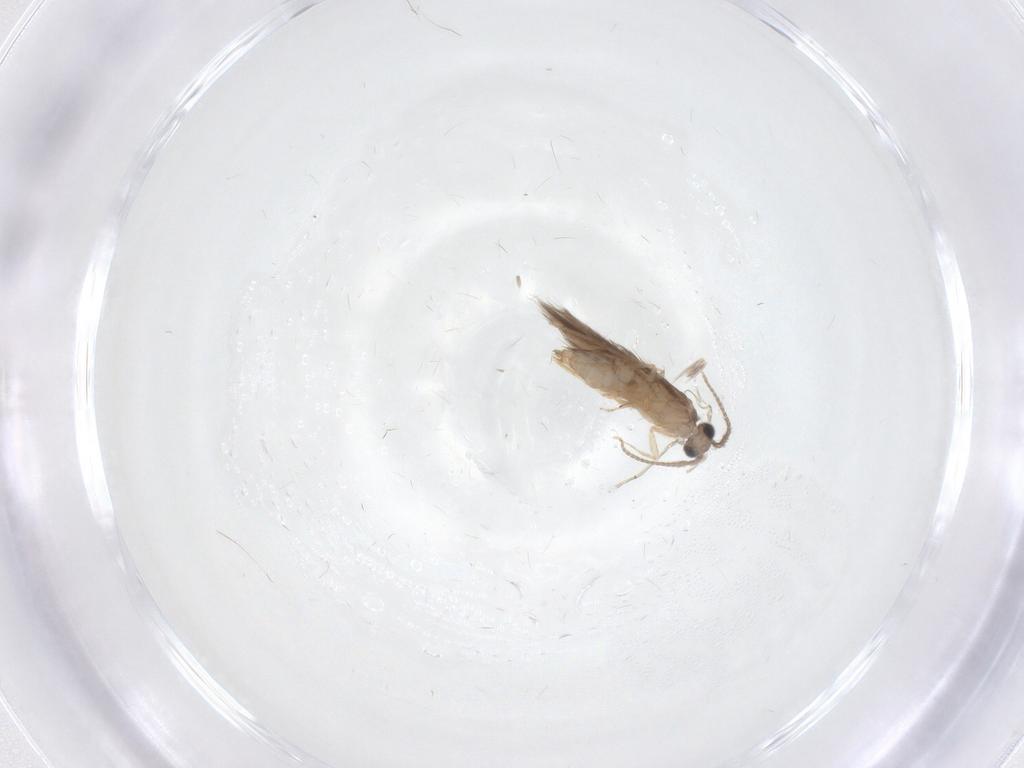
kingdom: Animalia
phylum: Arthropoda
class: Insecta
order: Trichoptera
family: Hydroptilidae
